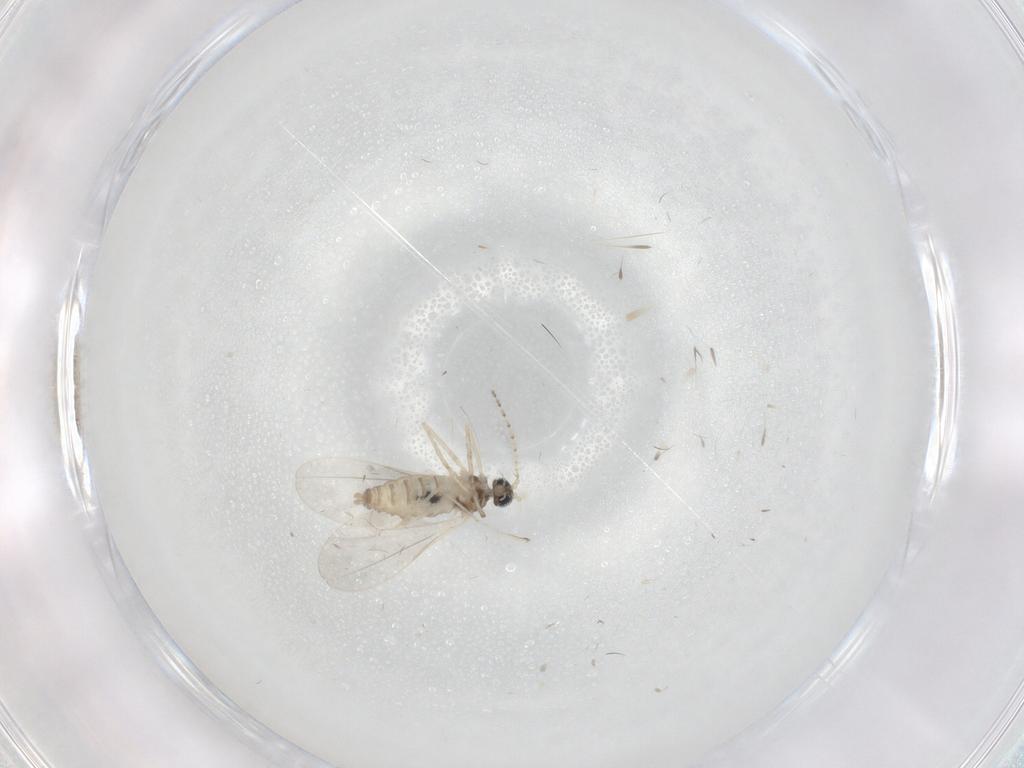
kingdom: Animalia
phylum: Arthropoda
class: Insecta
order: Diptera
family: Cecidomyiidae
